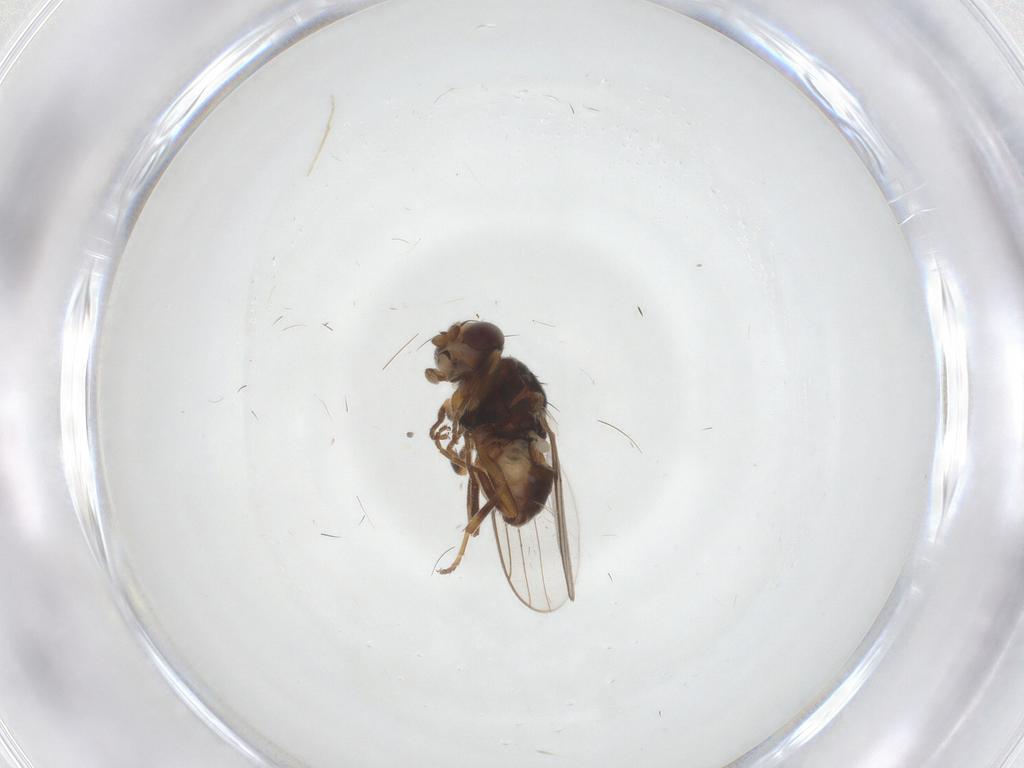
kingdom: Animalia
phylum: Arthropoda
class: Insecta
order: Diptera
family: Chloropidae
